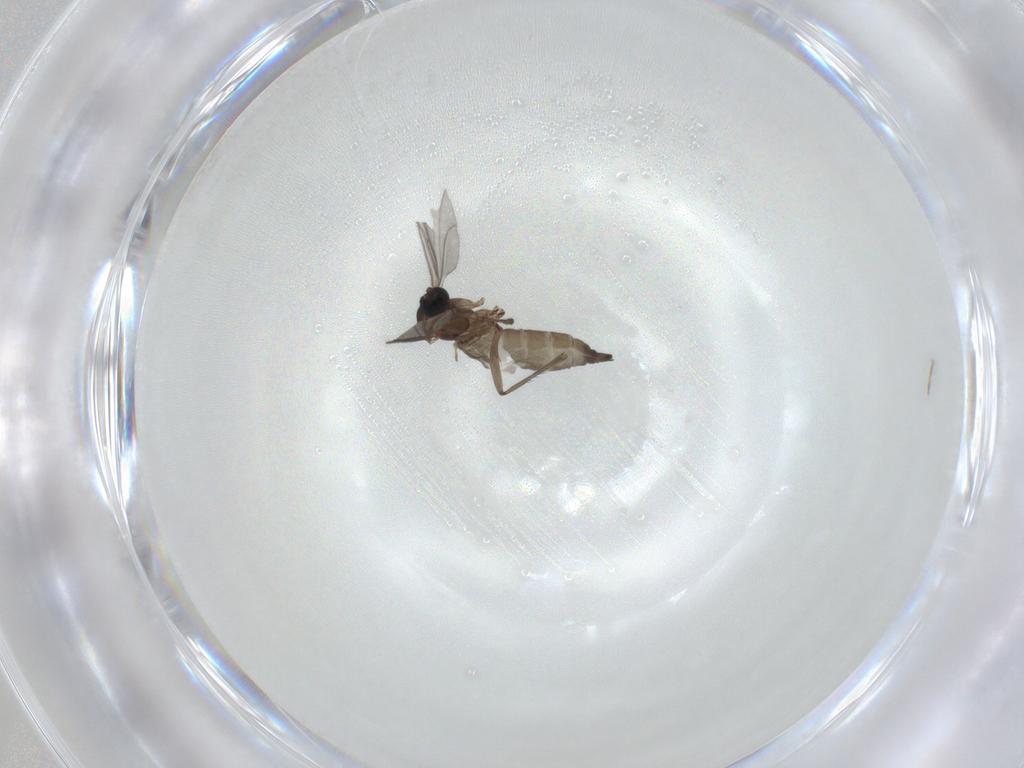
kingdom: Animalia
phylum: Arthropoda
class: Insecta
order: Diptera
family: Sciaridae
